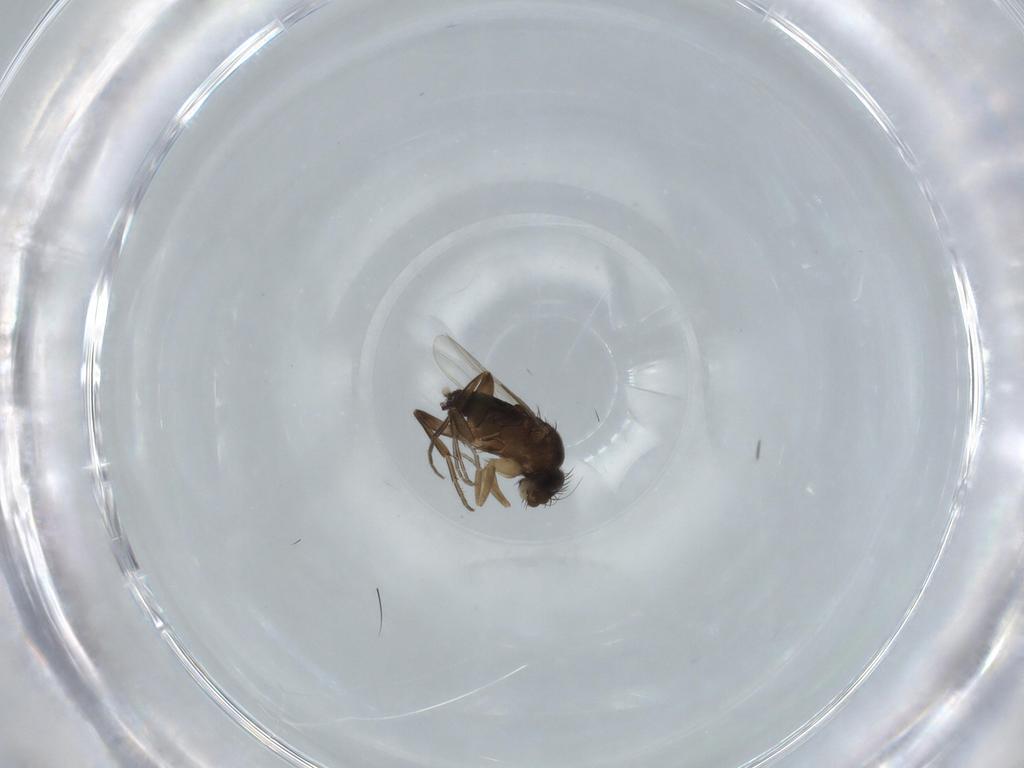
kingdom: Animalia
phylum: Arthropoda
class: Insecta
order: Diptera
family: Phoridae
